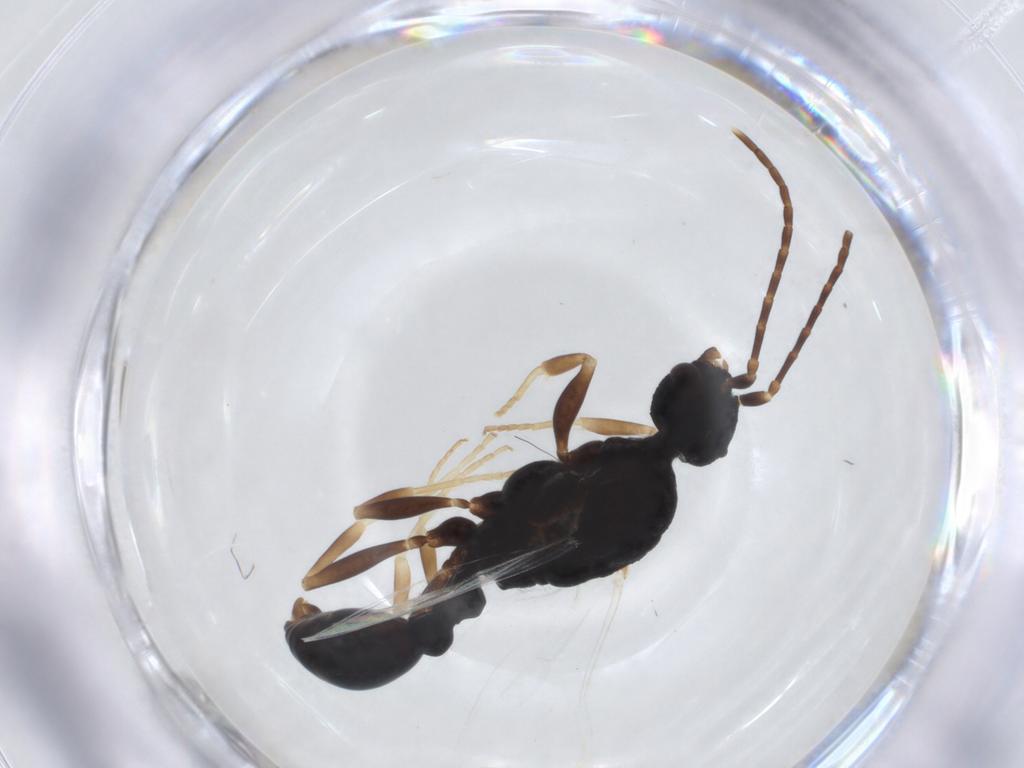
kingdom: Animalia
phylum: Arthropoda
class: Insecta
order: Hymenoptera
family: Formicidae
